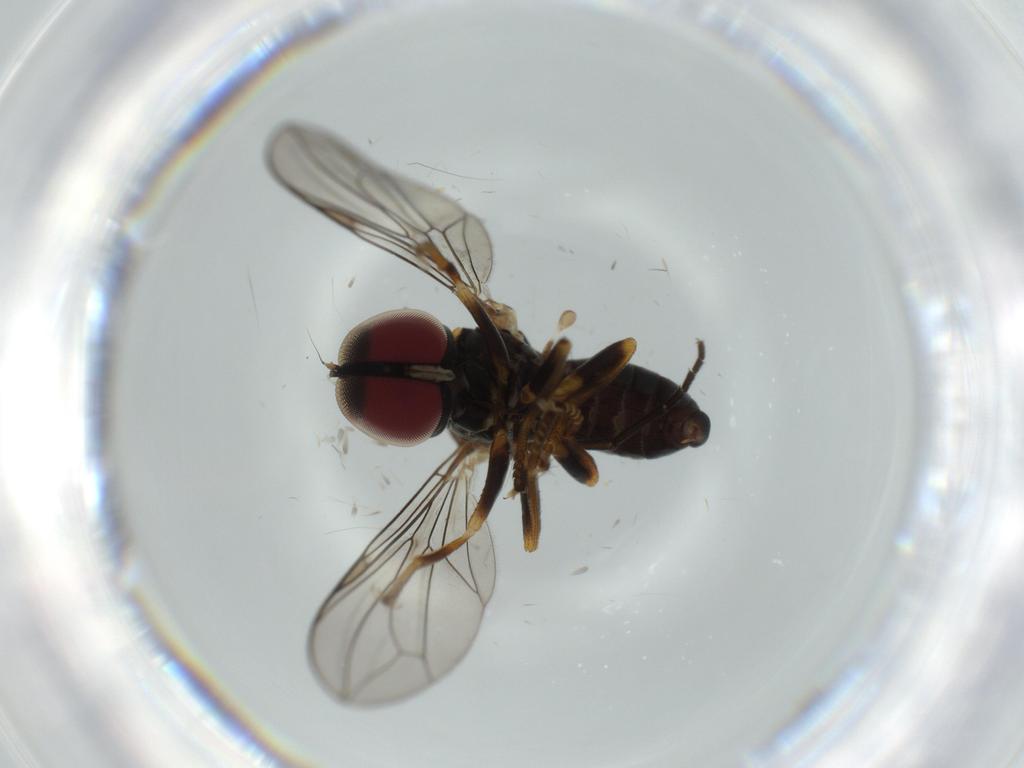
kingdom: Animalia
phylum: Arthropoda
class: Insecta
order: Diptera
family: Pipunculidae
